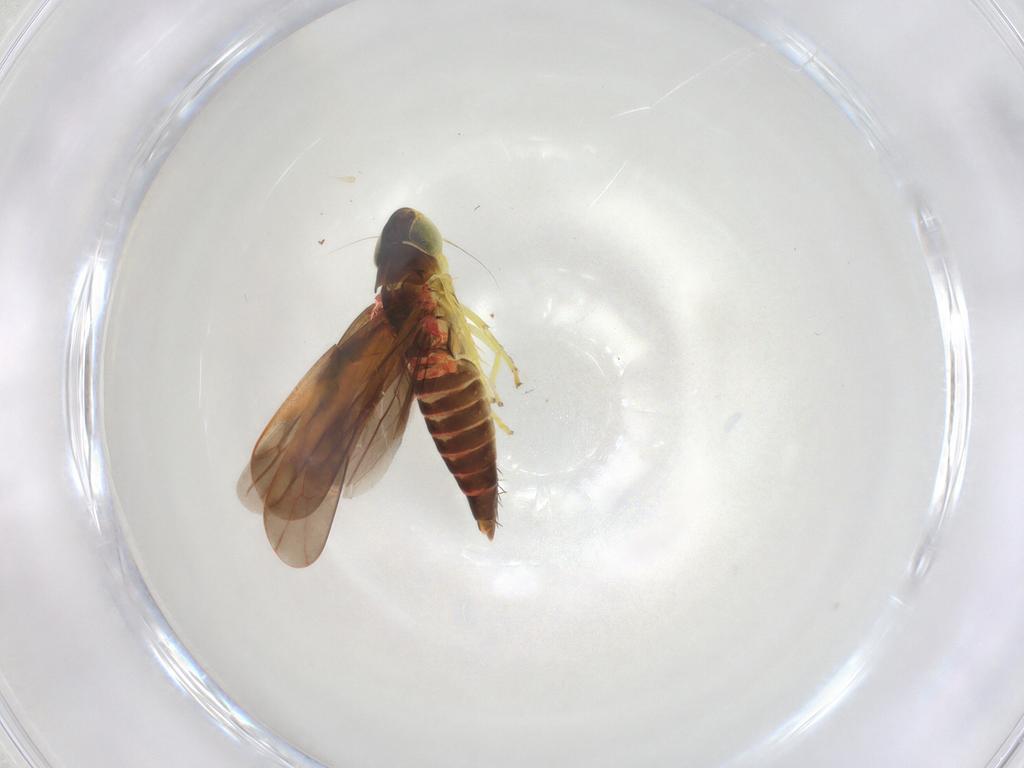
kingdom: Animalia
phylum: Arthropoda
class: Insecta
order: Hemiptera
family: Cicadellidae
